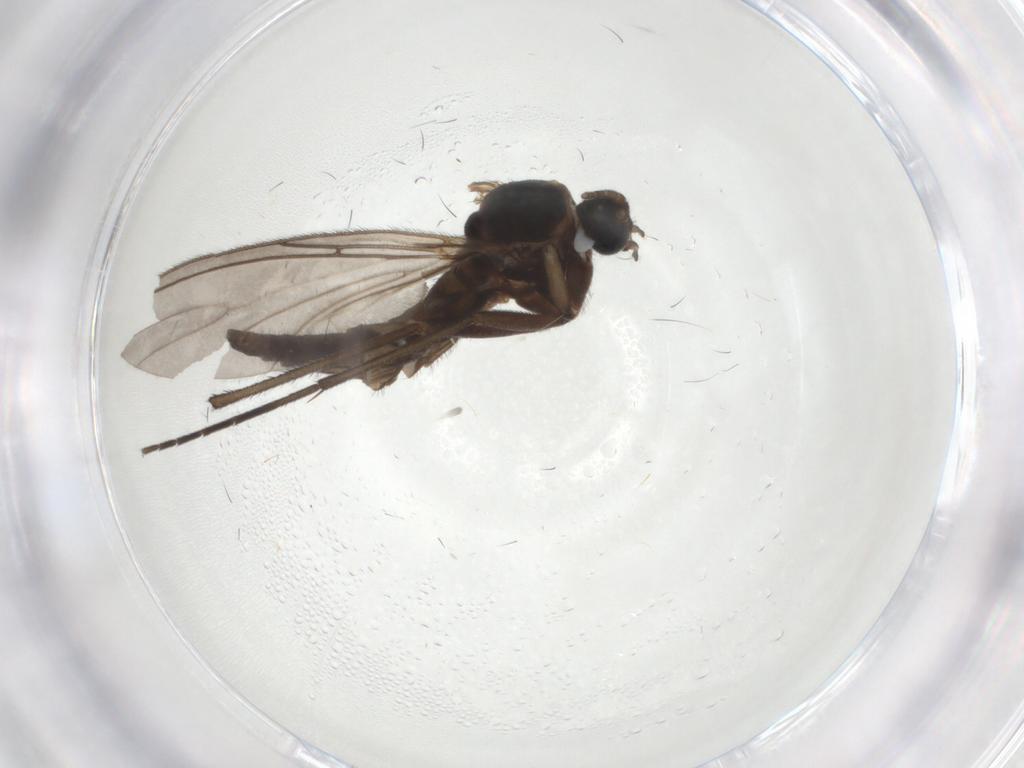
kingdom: Animalia
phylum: Arthropoda
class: Insecta
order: Diptera
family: Sciaridae
